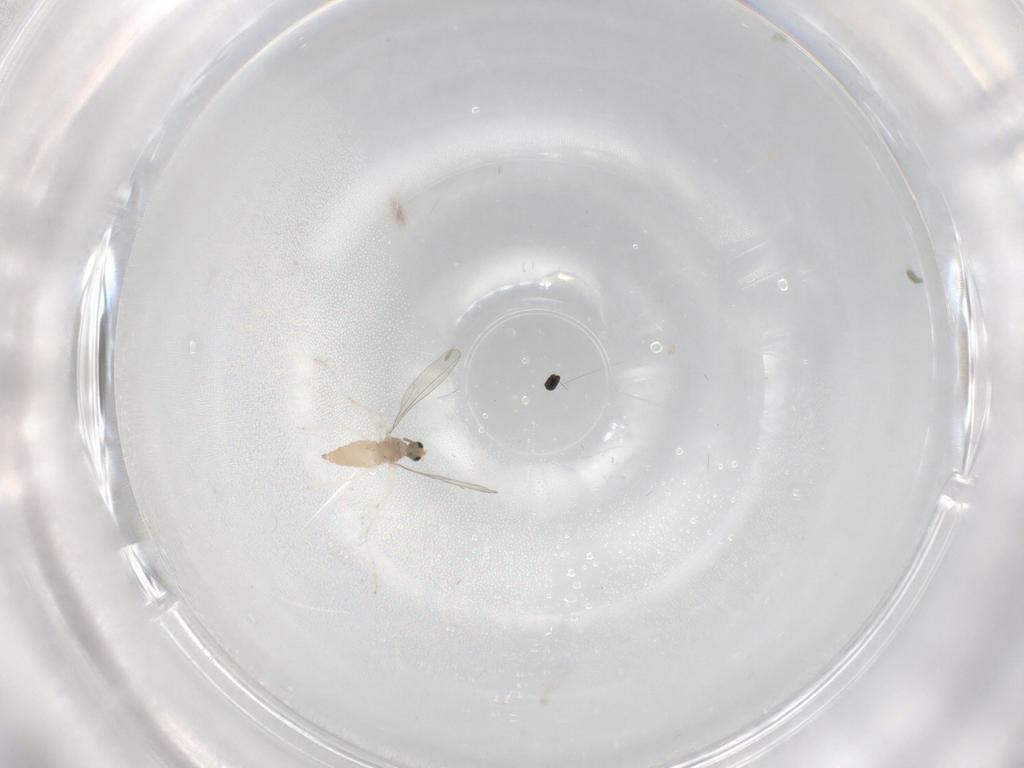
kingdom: Animalia
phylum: Arthropoda
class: Insecta
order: Diptera
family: Cecidomyiidae
